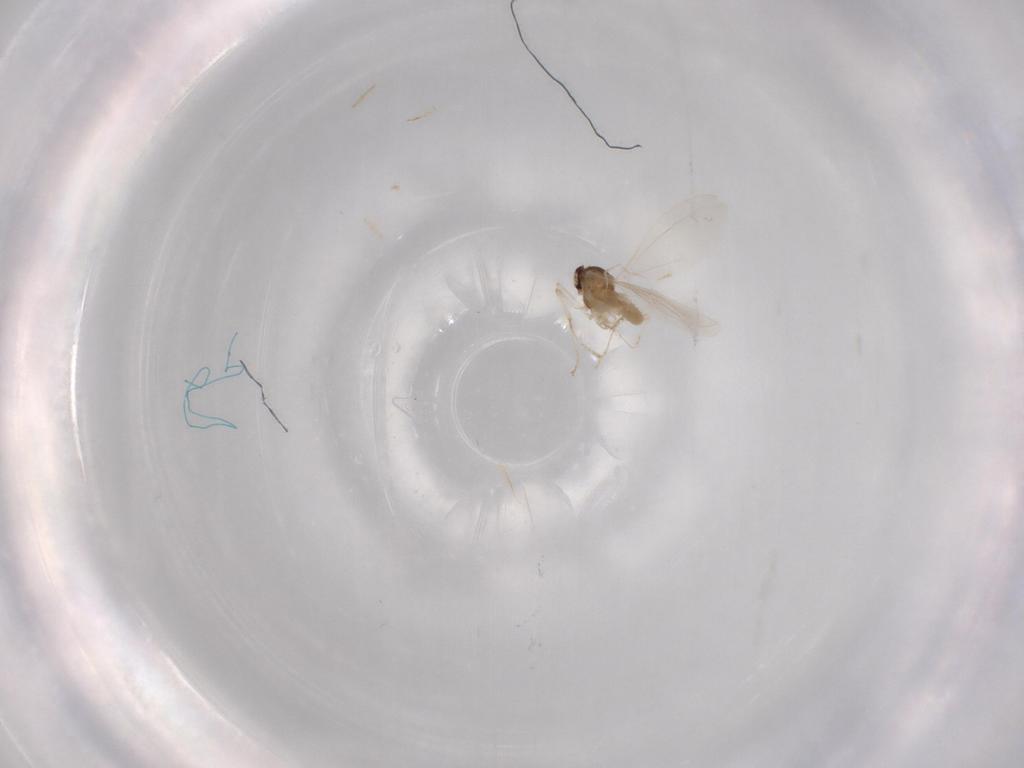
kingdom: Animalia
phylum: Arthropoda
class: Insecta
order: Diptera
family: Cecidomyiidae
